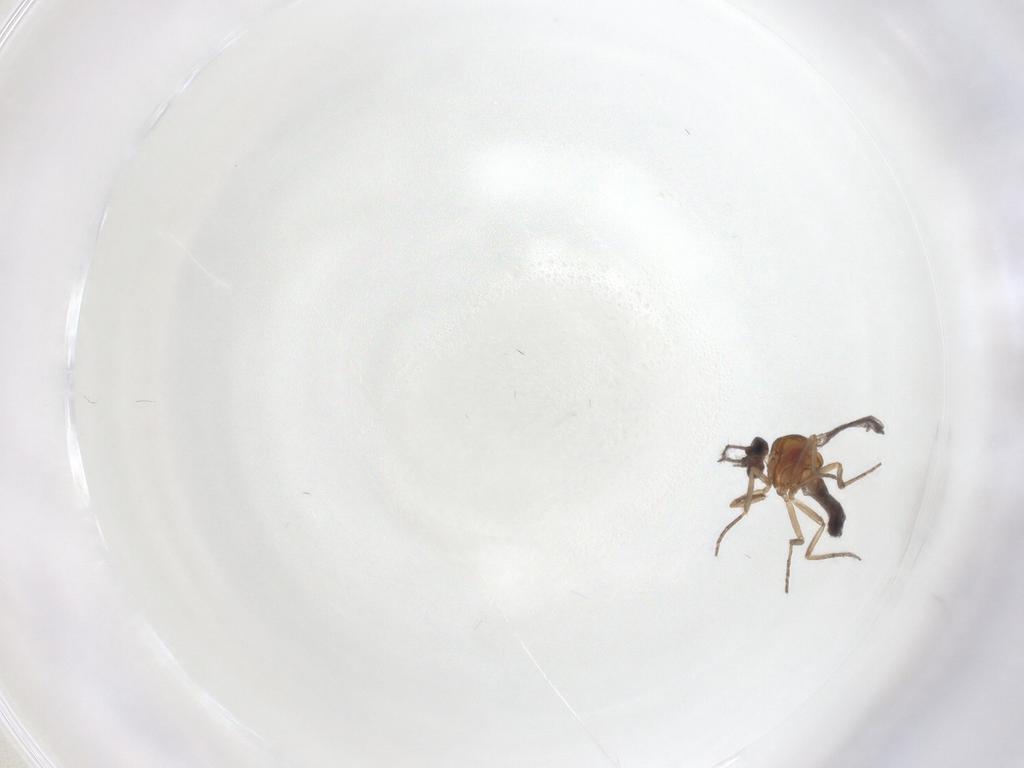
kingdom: Animalia
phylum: Arthropoda
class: Insecta
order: Diptera
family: Ceratopogonidae
